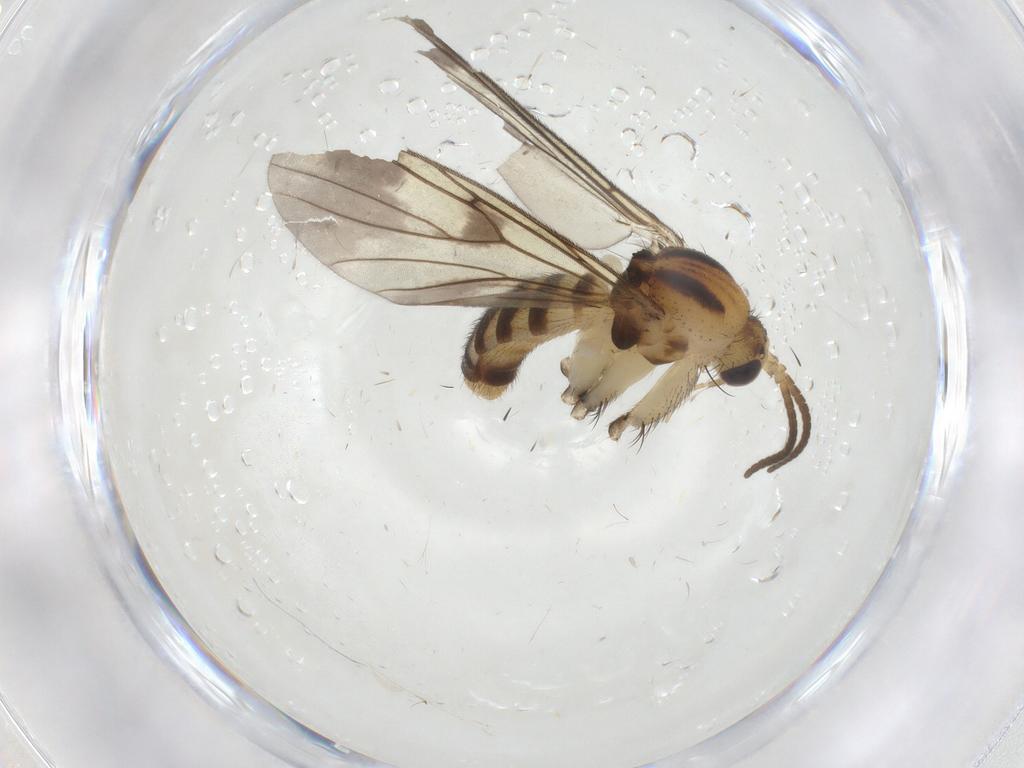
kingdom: Animalia
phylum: Arthropoda
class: Insecta
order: Diptera
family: Mycetophilidae
